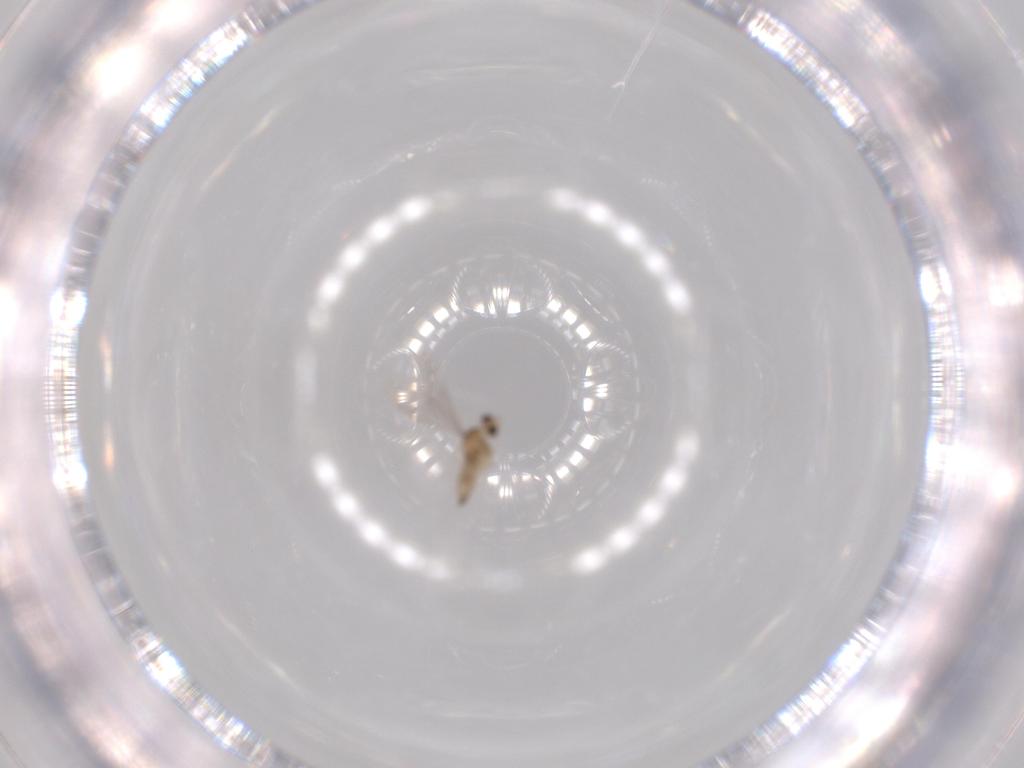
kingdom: Animalia
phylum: Arthropoda
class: Insecta
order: Diptera
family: Cecidomyiidae
